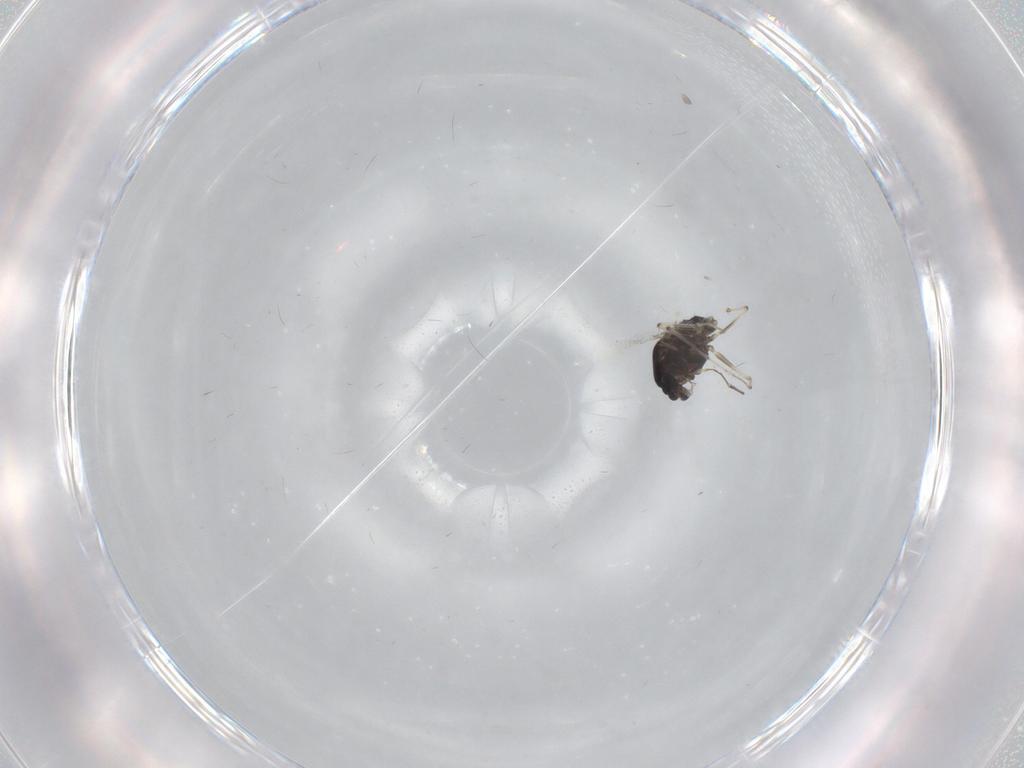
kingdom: Animalia
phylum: Arthropoda
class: Insecta
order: Diptera
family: Chironomidae
